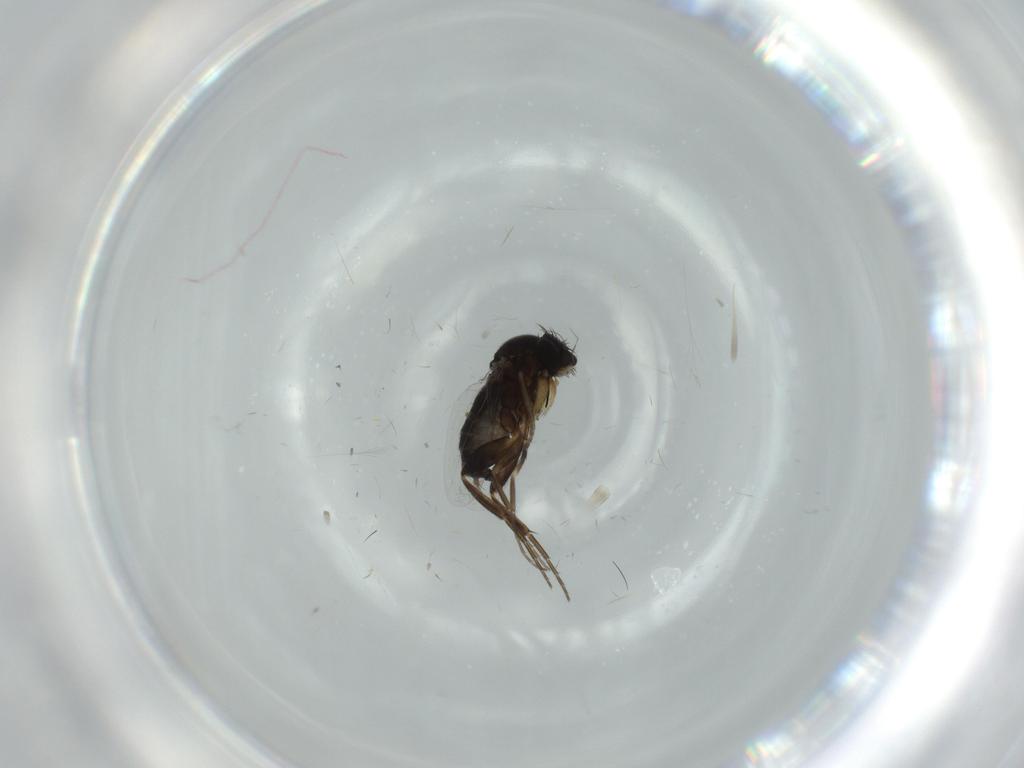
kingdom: Animalia
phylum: Arthropoda
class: Insecta
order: Diptera
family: Phoridae
